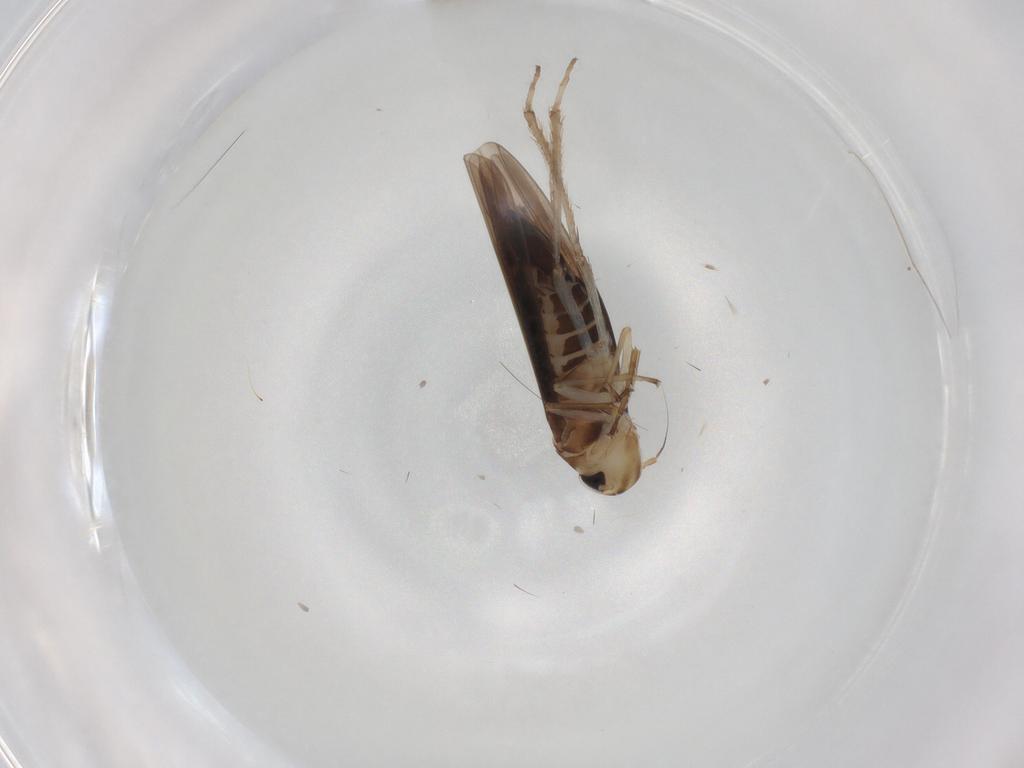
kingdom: Animalia
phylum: Arthropoda
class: Insecta
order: Hemiptera
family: Cicadellidae
